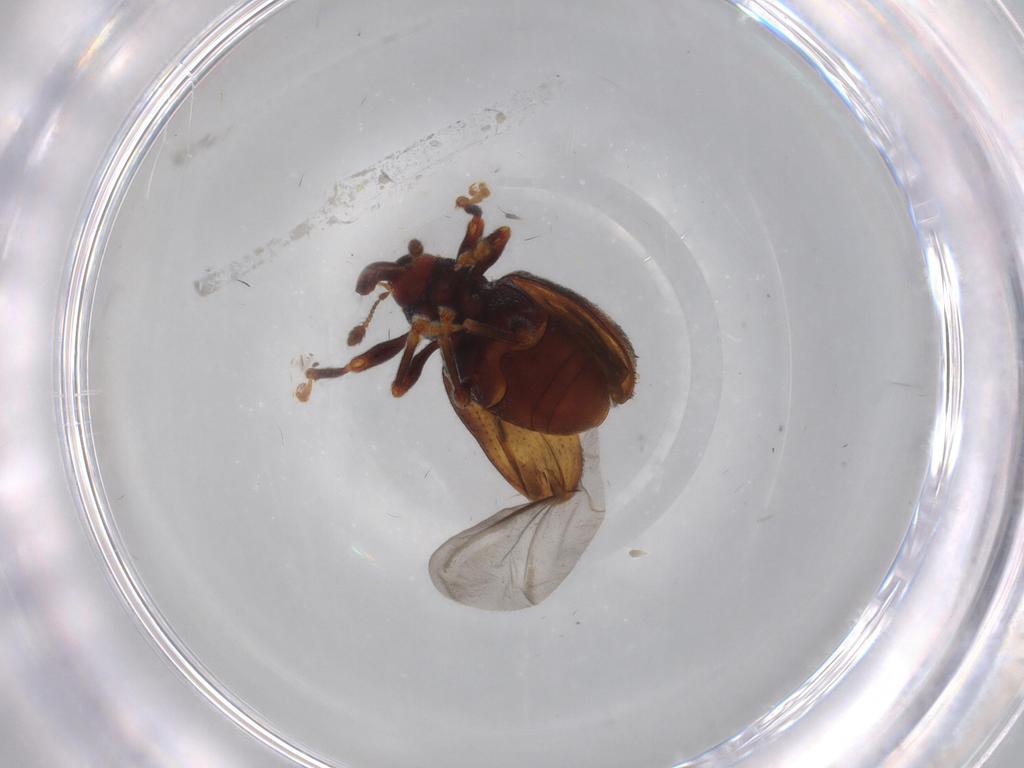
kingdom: Animalia
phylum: Arthropoda
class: Insecta
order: Coleoptera
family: Curculionidae
